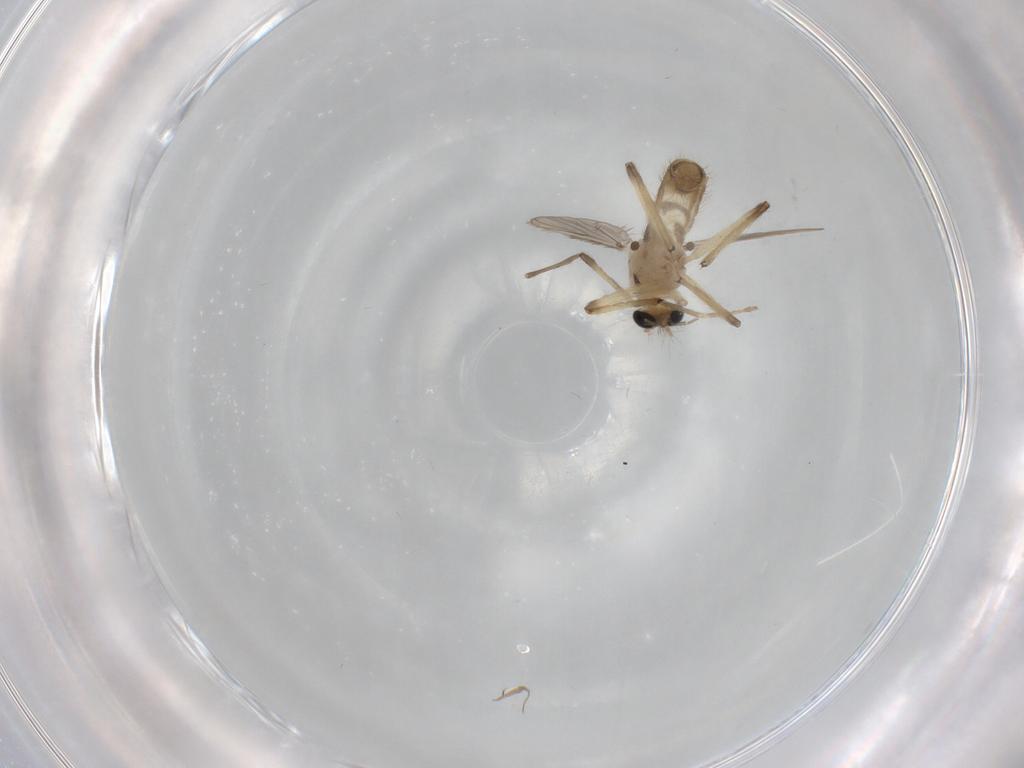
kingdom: Animalia
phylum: Arthropoda
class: Insecta
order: Diptera
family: Chironomidae
